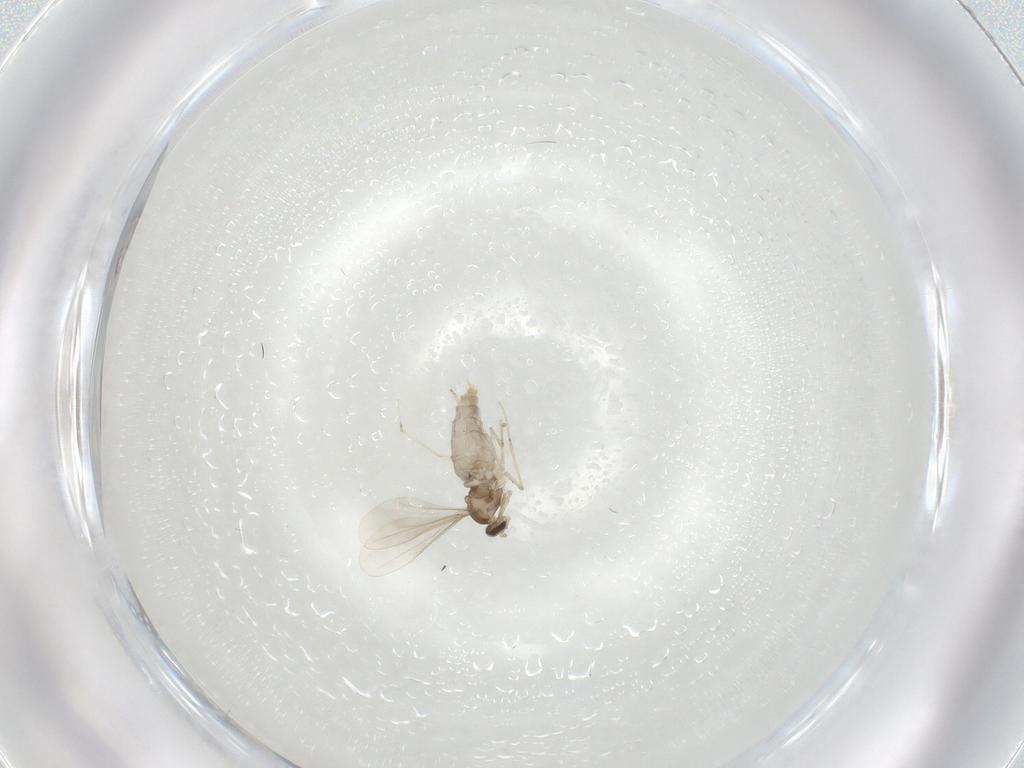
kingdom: Animalia
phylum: Arthropoda
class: Insecta
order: Diptera
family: Cecidomyiidae
